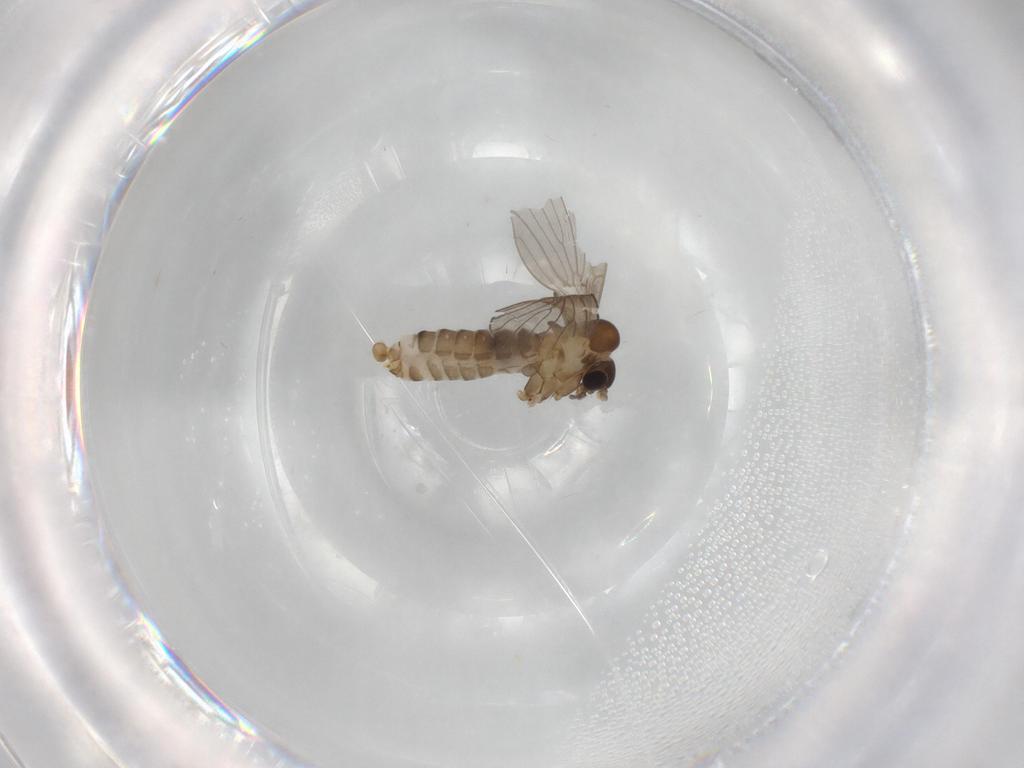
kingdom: Animalia
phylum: Arthropoda
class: Insecta
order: Diptera
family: Psychodidae
